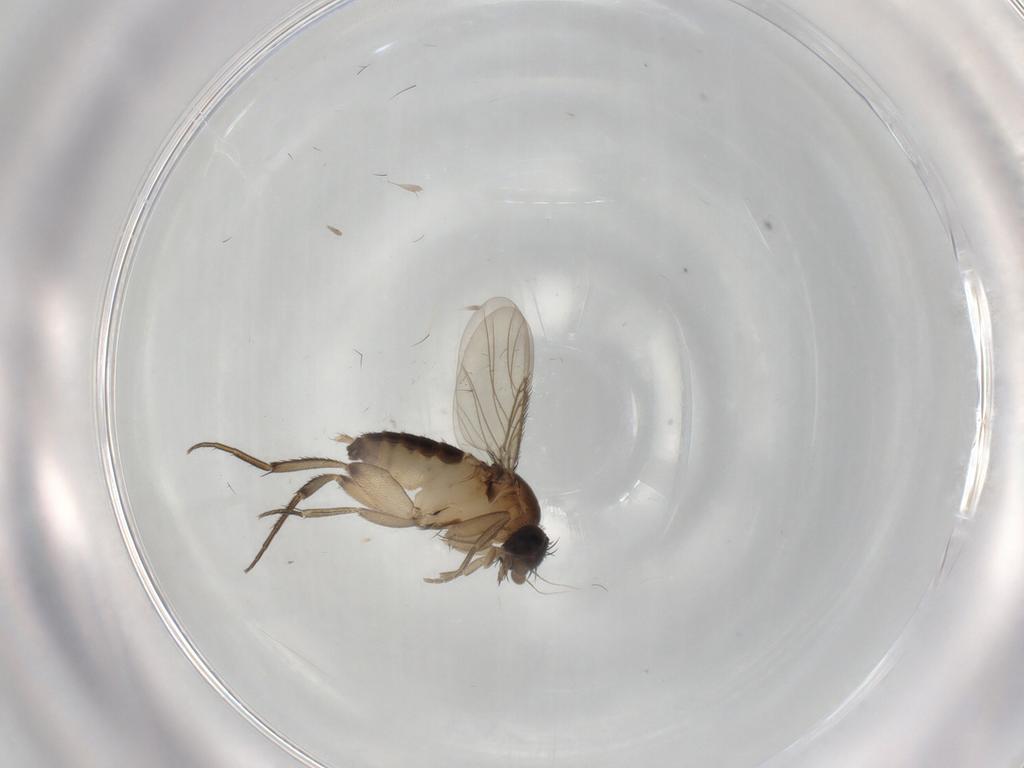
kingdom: Animalia
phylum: Arthropoda
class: Insecta
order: Diptera
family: Phoridae
